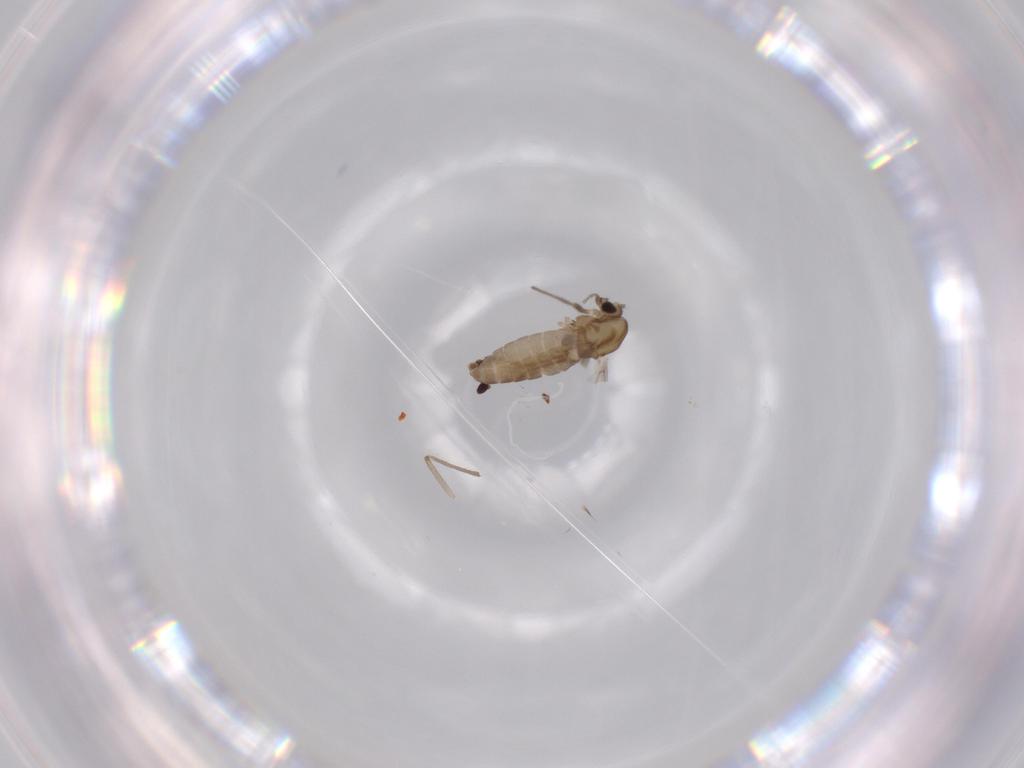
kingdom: Animalia
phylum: Arthropoda
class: Insecta
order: Diptera
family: Chironomidae
